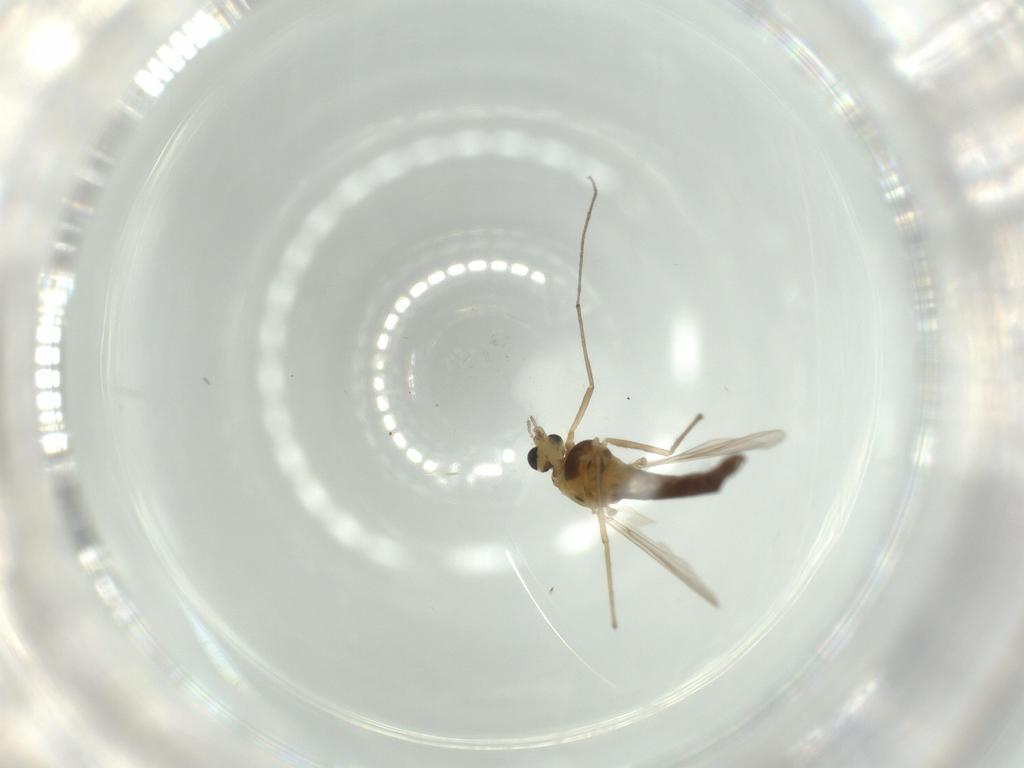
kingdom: Animalia
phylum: Arthropoda
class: Insecta
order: Diptera
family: Chironomidae
